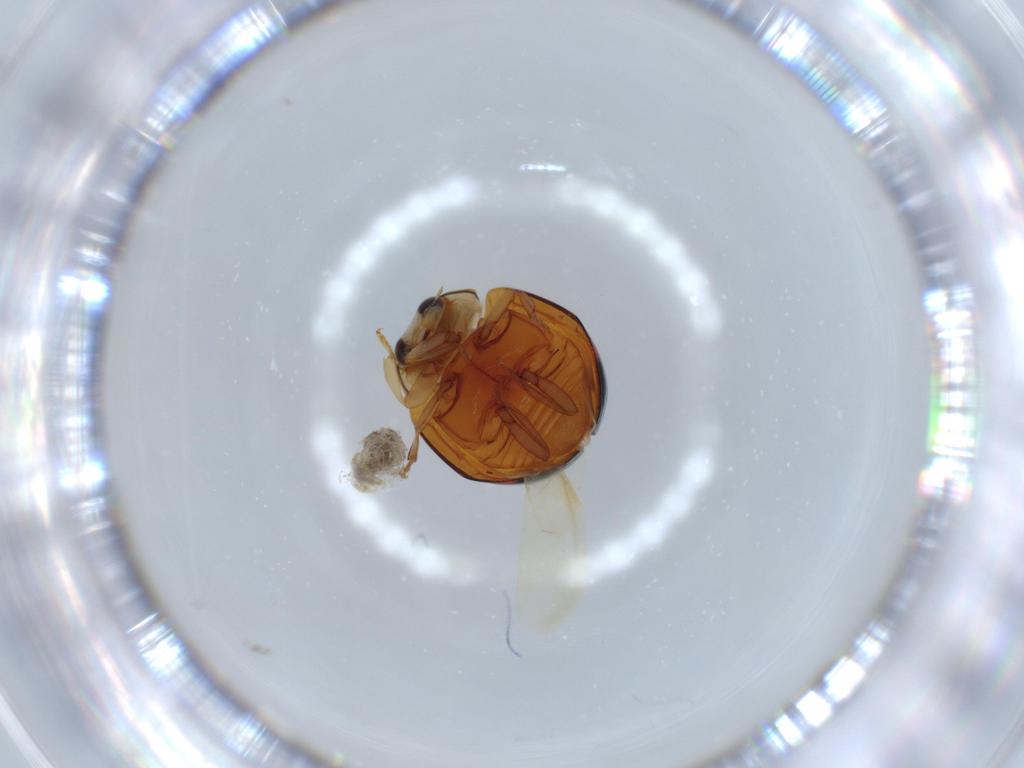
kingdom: Animalia
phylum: Arthropoda
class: Insecta
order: Coleoptera
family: Coccinellidae
